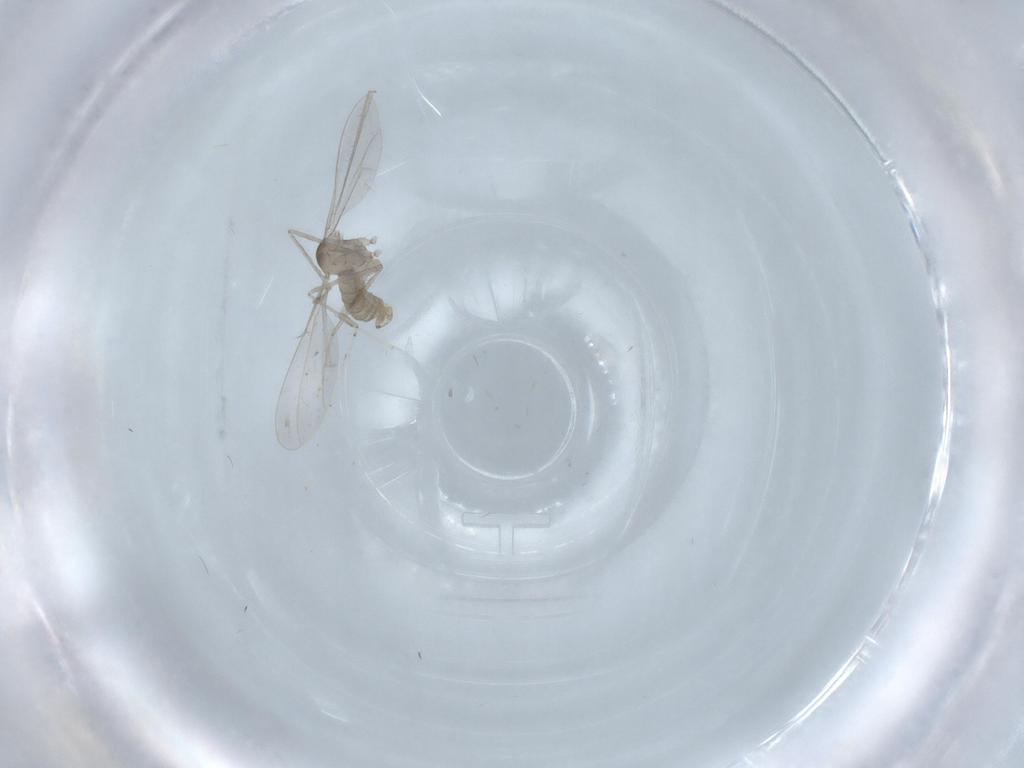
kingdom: Animalia
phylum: Arthropoda
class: Insecta
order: Diptera
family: Cecidomyiidae
